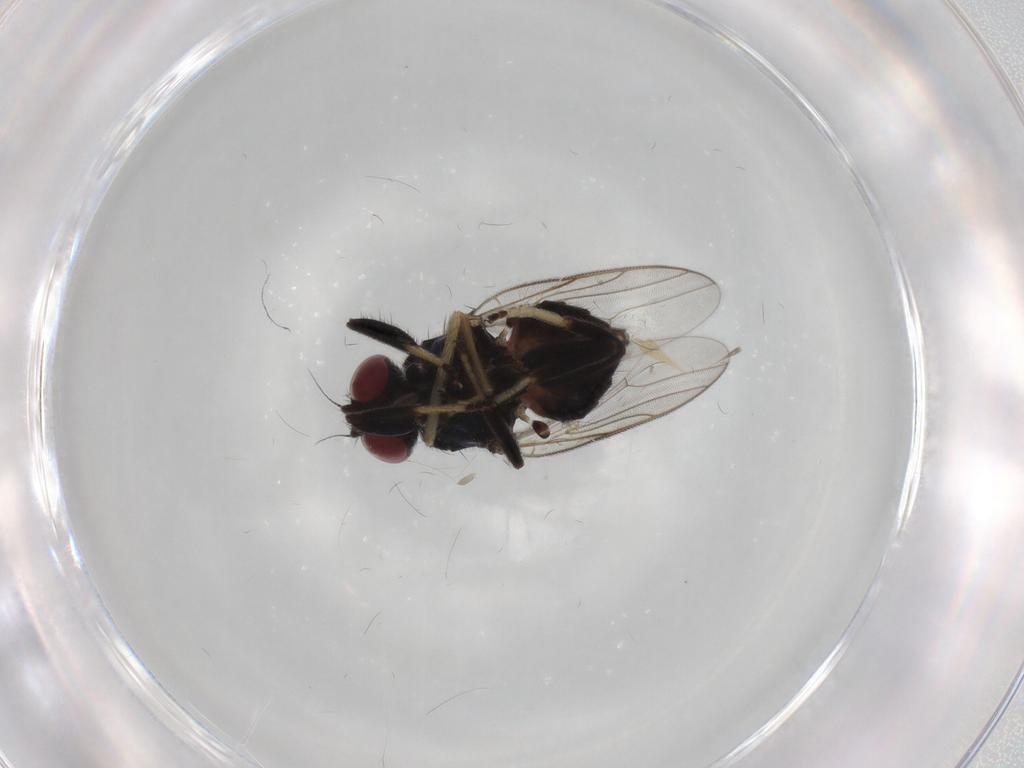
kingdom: Animalia
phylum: Arthropoda
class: Insecta
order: Diptera
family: Chloropidae
